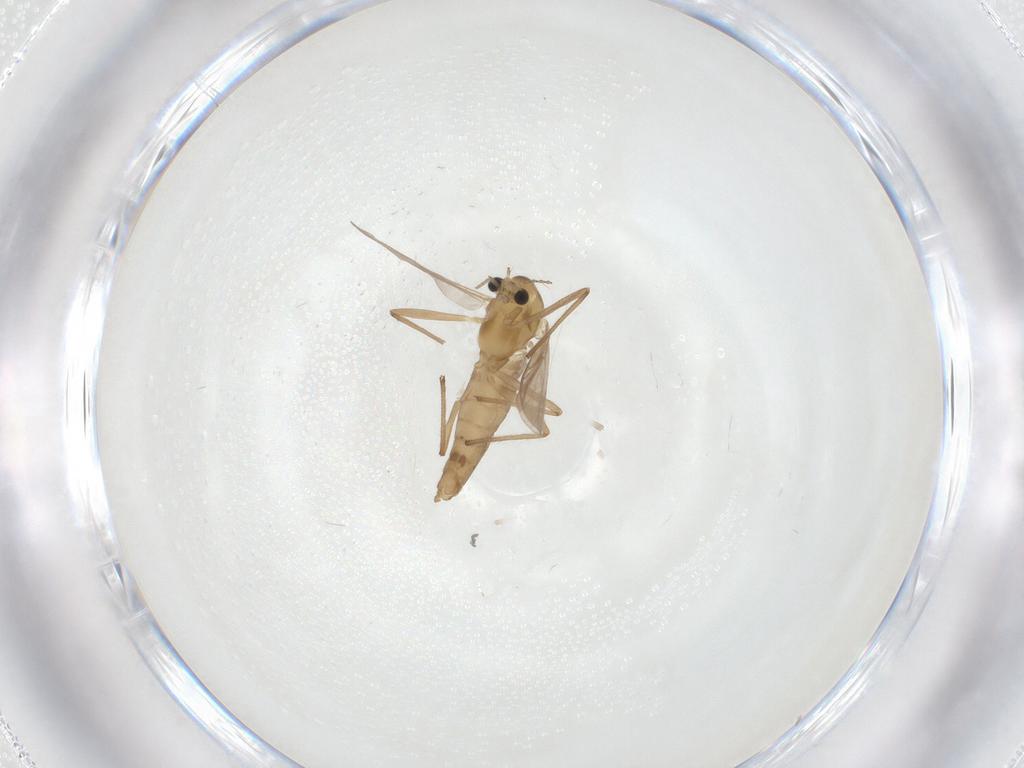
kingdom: Animalia
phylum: Arthropoda
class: Insecta
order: Diptera
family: Chironomidae
